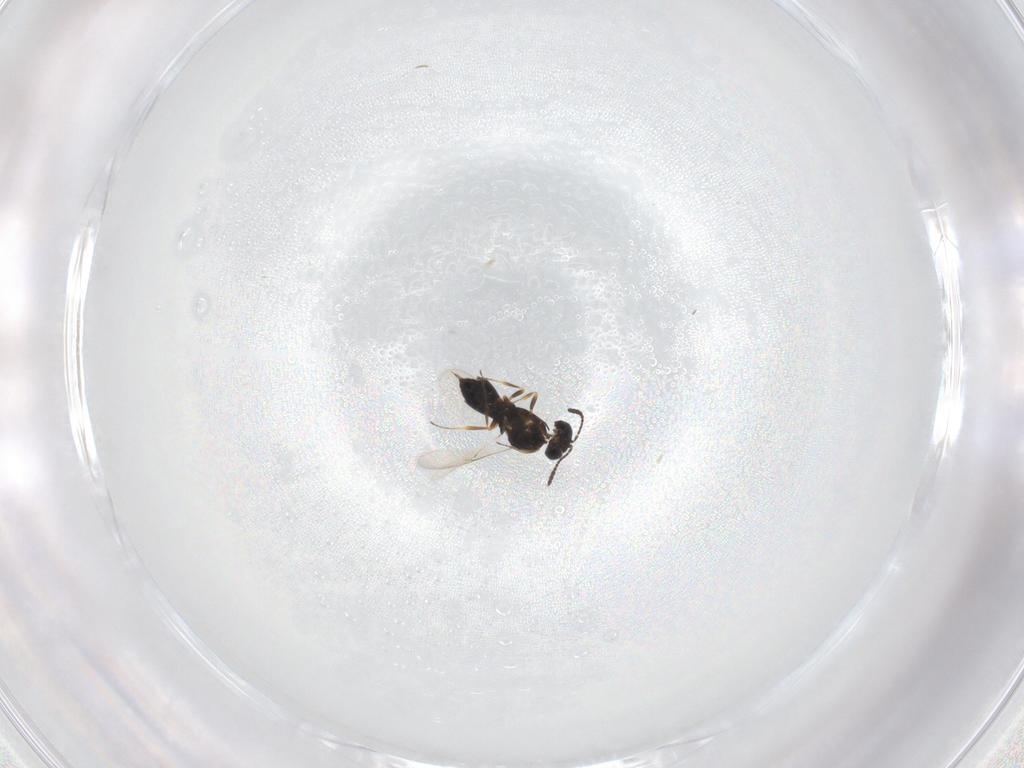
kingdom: Animalia
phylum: Arthropoda
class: Insecta
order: Hymenoptera
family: Scelionidae
